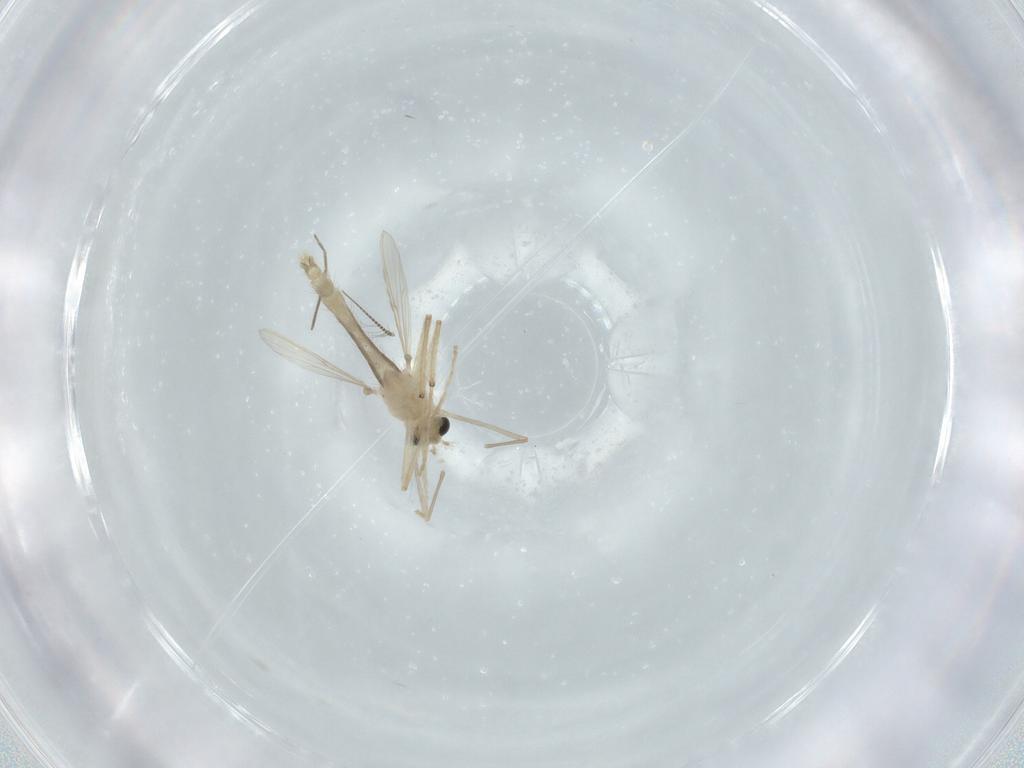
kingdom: Animalia
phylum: Arthropoda
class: Insecta
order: Diptera
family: Chironomidae
